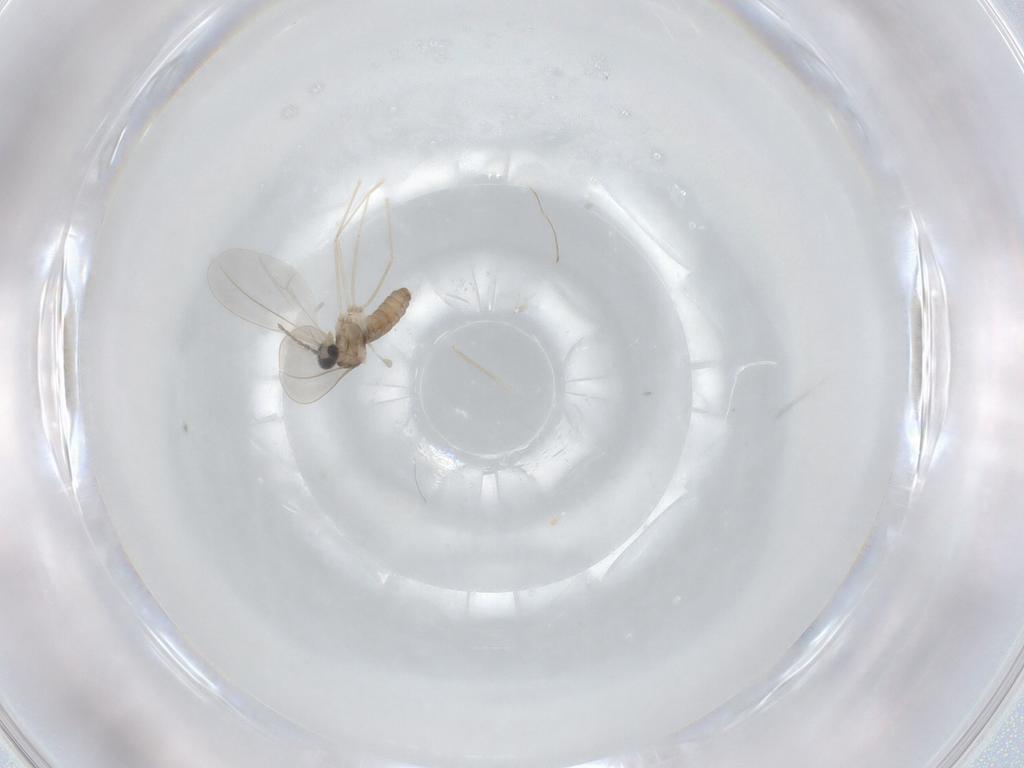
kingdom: Animalia
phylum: Arthropoda
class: Insecta
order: Diptera
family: Cecidomyiidae
